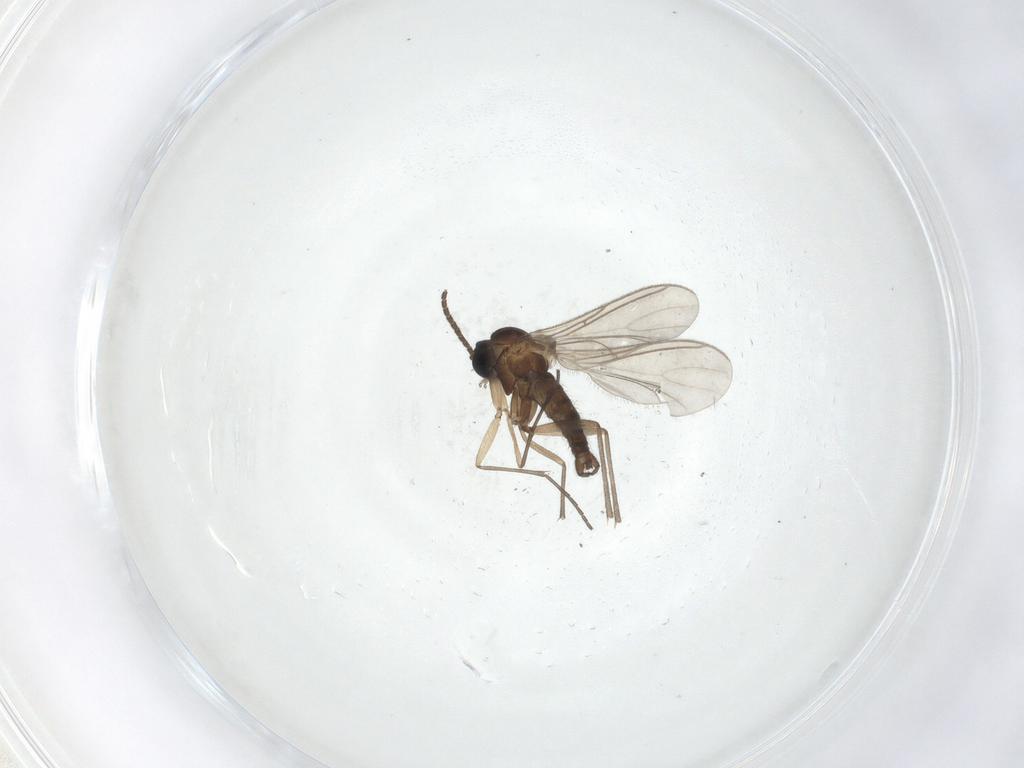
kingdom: Animalia
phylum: Arthropoda
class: Insecta
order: Diptera
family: Sciaridae
